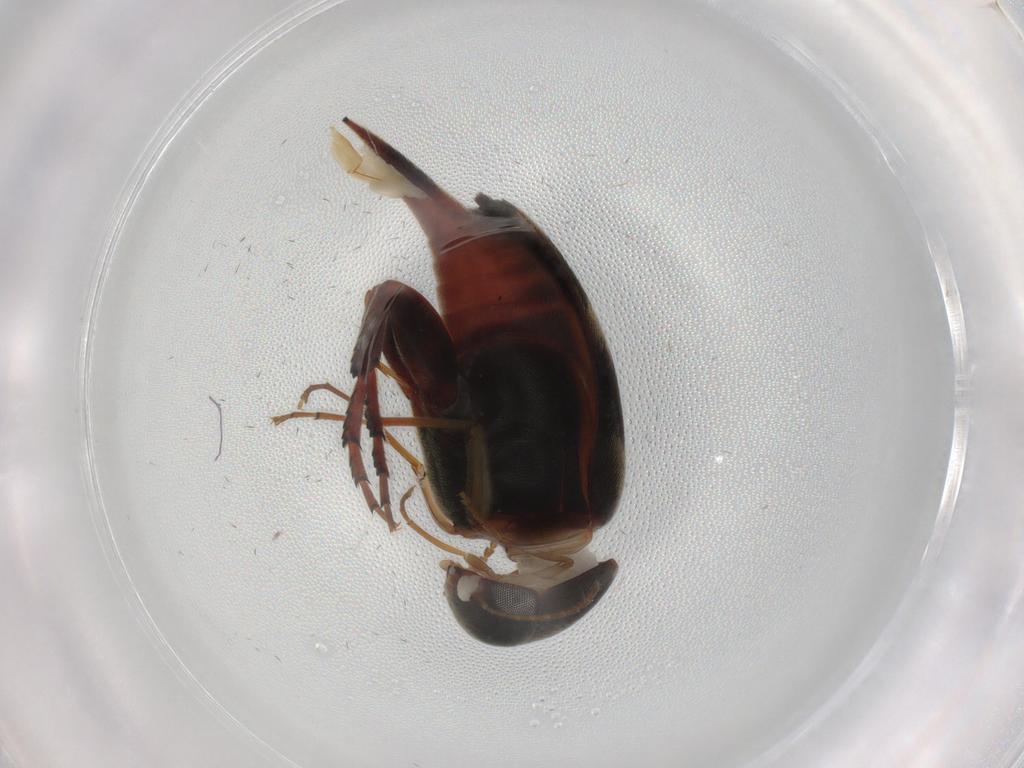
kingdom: Animalia
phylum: Arthropoda
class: Insecta
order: Coleoptera
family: Mordellidae
